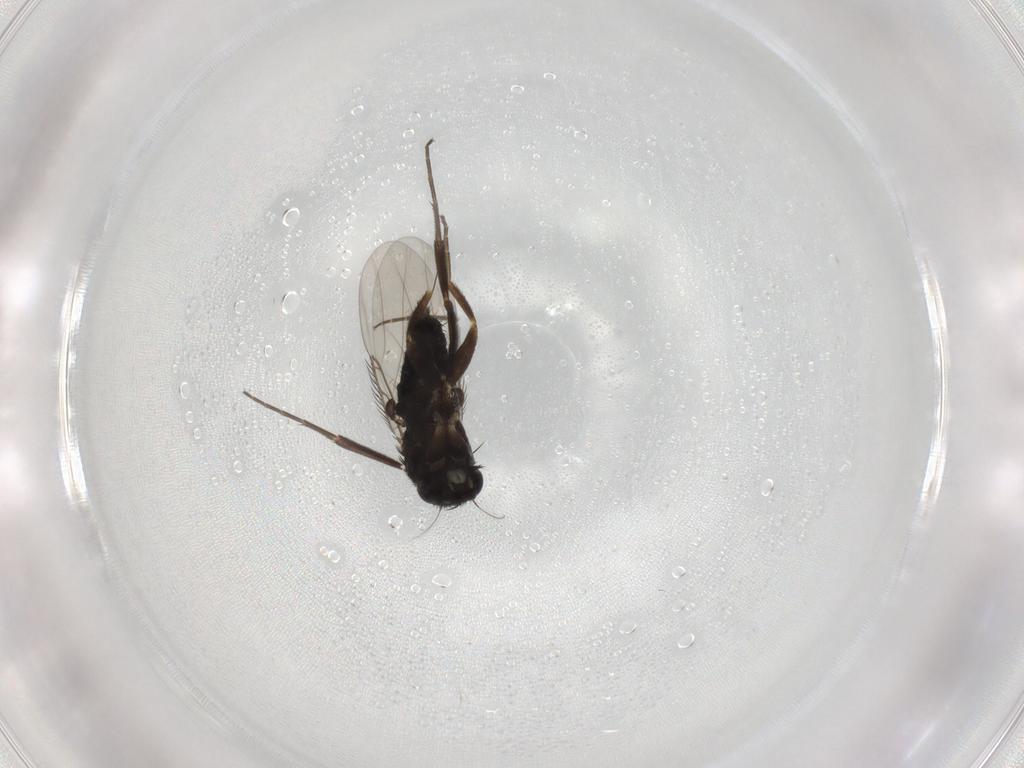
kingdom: Animalia
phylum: Arthropoda
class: Insecta
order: Diptera
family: Phoridae
